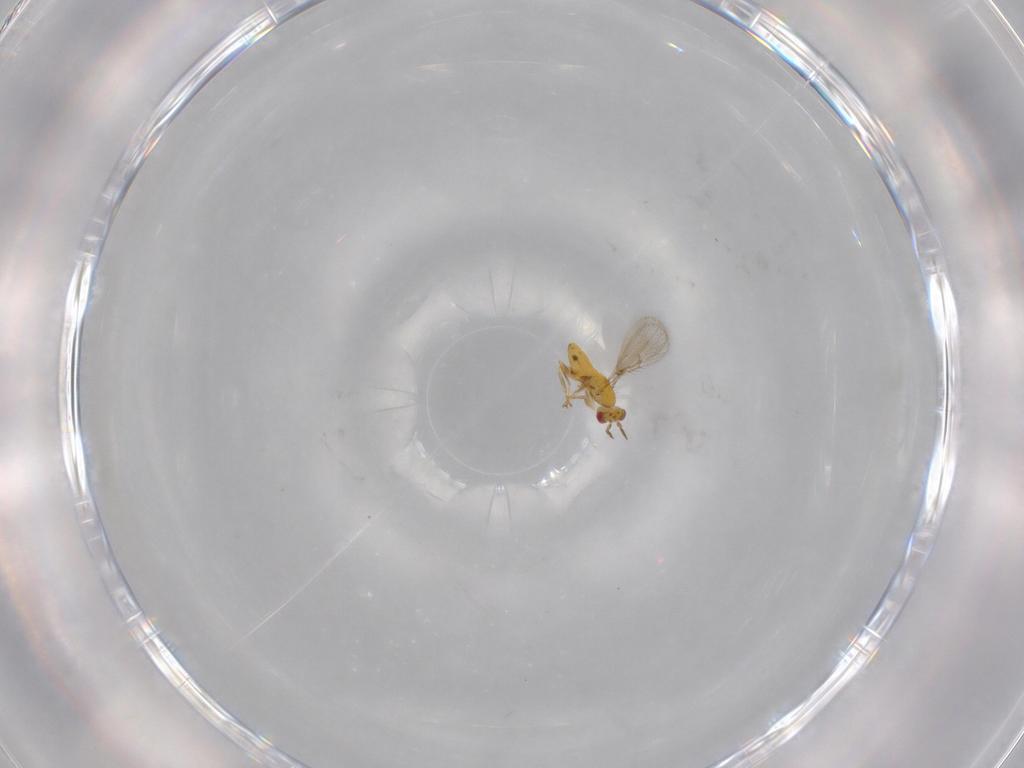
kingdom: Animalia
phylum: Arthropoda
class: Insecta
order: Hymenoptera
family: Trichogrammatidae
